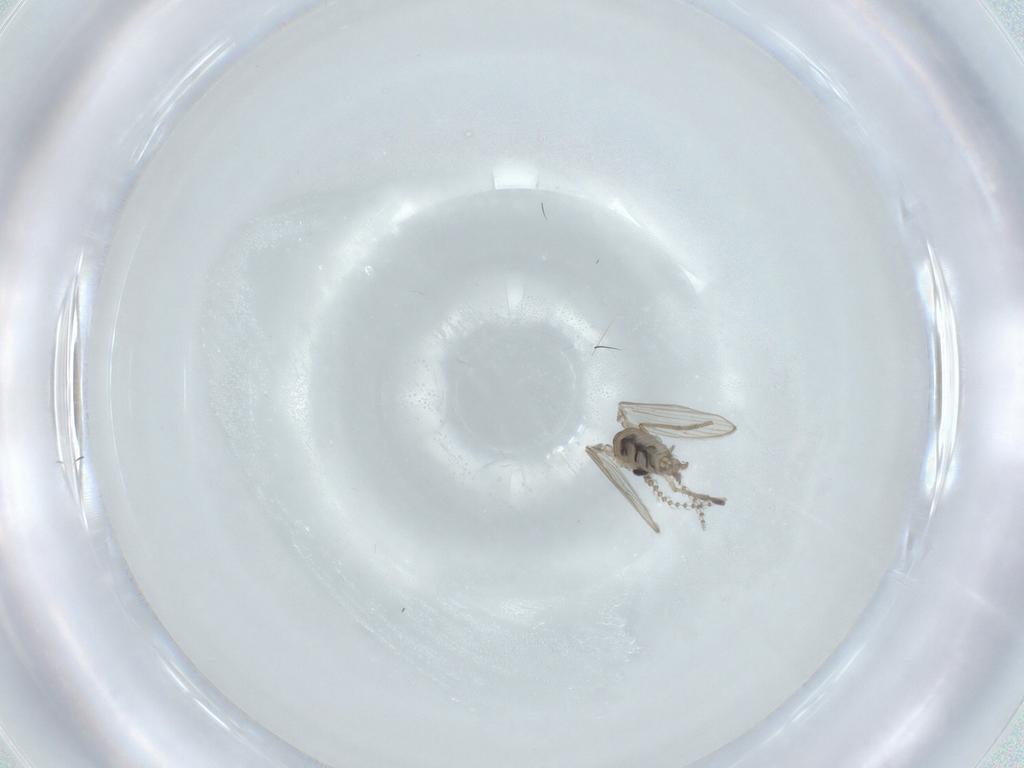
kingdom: Animalia
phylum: Arthropoda
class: Insecta
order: Diptera
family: Psychodidae
